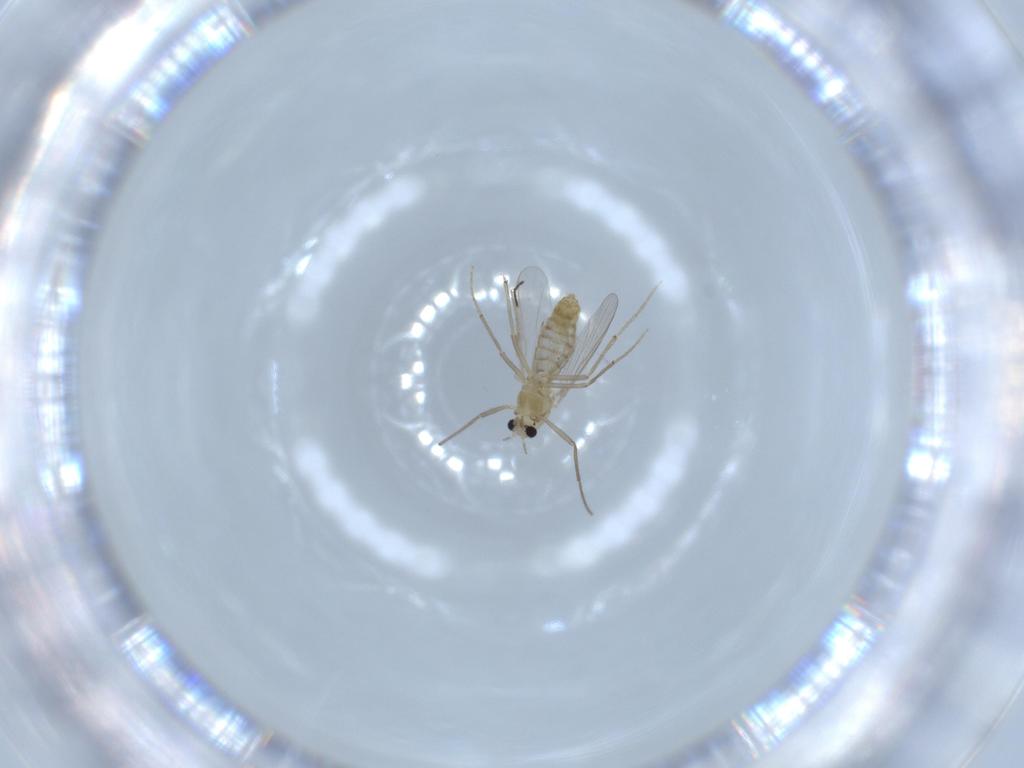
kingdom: Animalia
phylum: Arthropoda
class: Insecta
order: Diptera
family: Chironomidae
